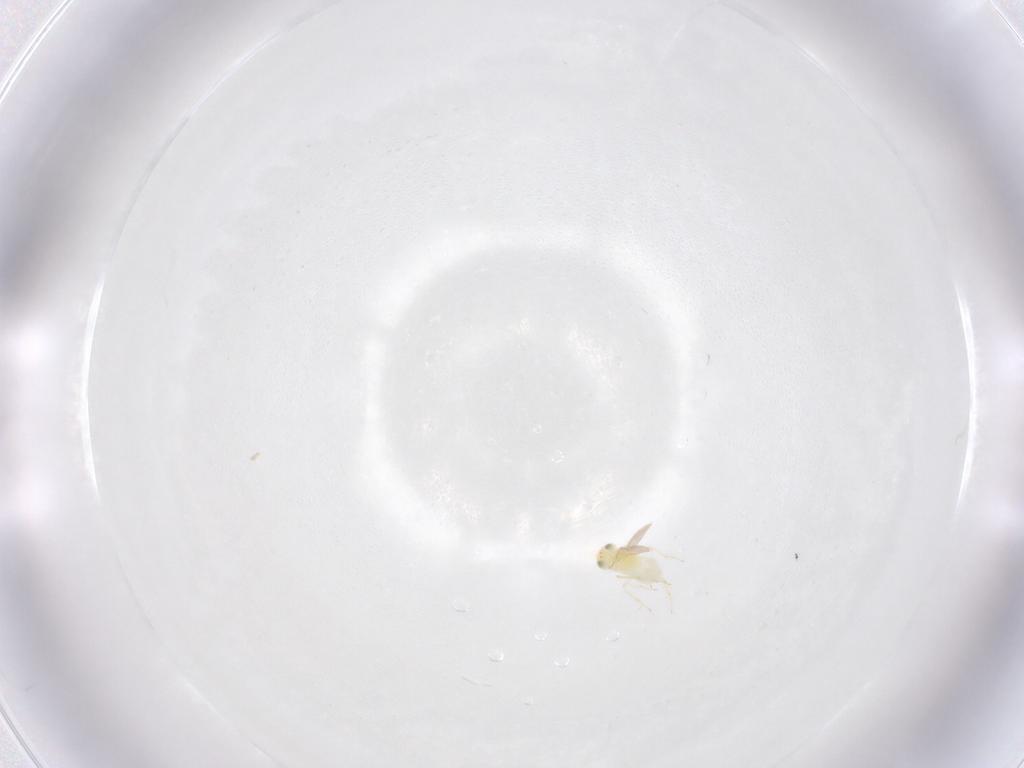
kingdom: Animalia
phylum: Arthropoda
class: Insecta
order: Hymenoptera
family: Aphelinidae
